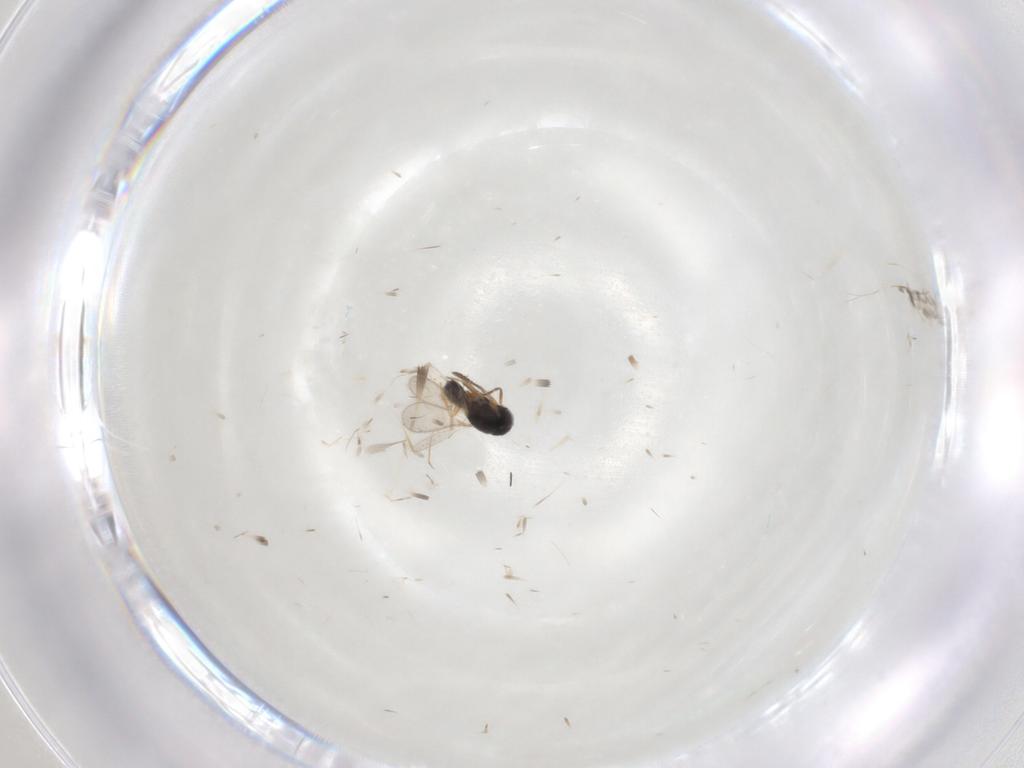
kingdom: Animalia
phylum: Arthropoda
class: Insecta
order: Hymenoptera
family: Scelionidae
